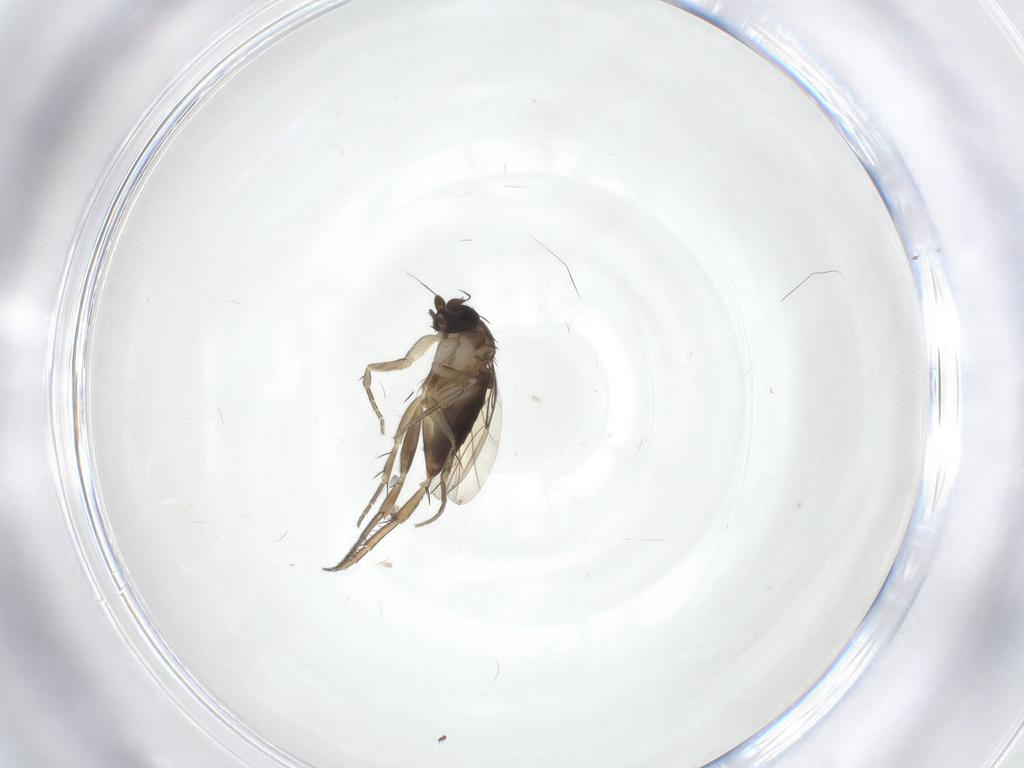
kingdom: Animalia
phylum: Arthropoda
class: Insecta
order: Diptera
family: Phoridae
